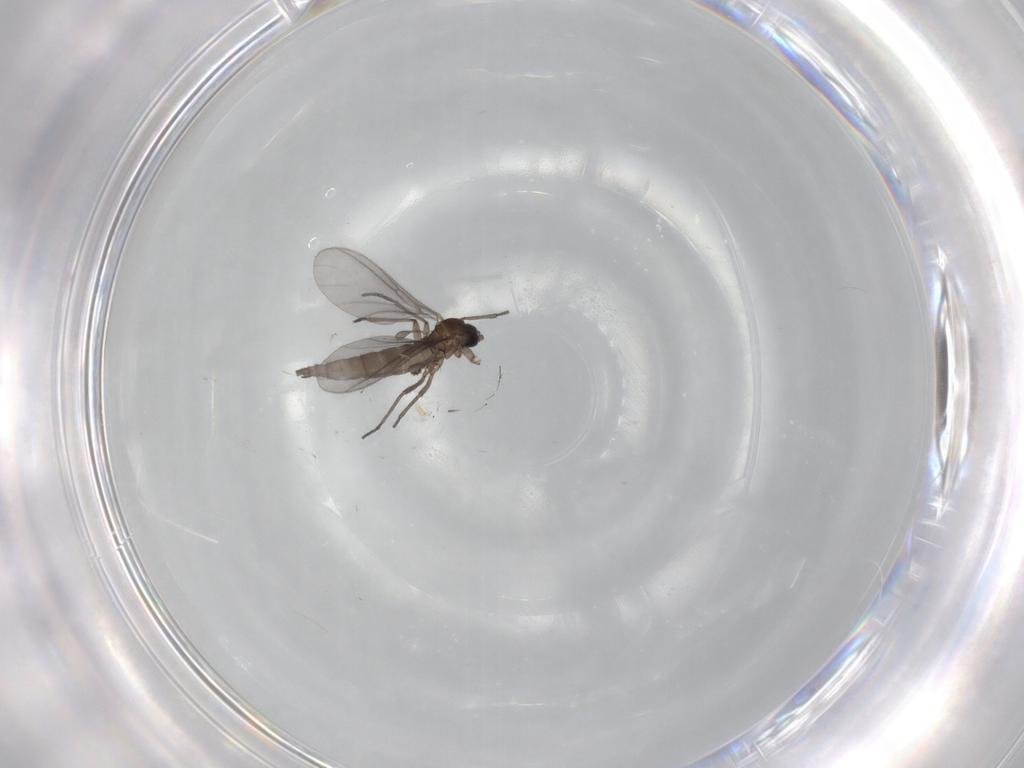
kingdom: Animalia
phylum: Arthropoda
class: Insecta
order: Diptera
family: Sciaridae
